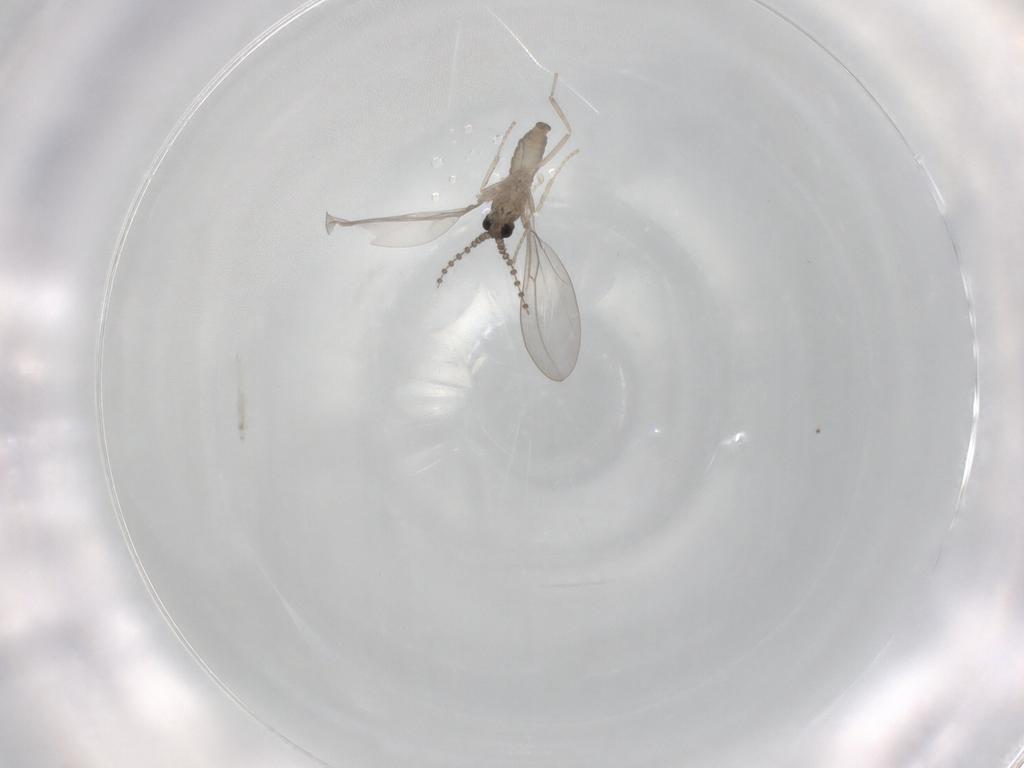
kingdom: Animalia
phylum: Arthropoda
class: Insecta
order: Diptera
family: Cecidomyiidae
